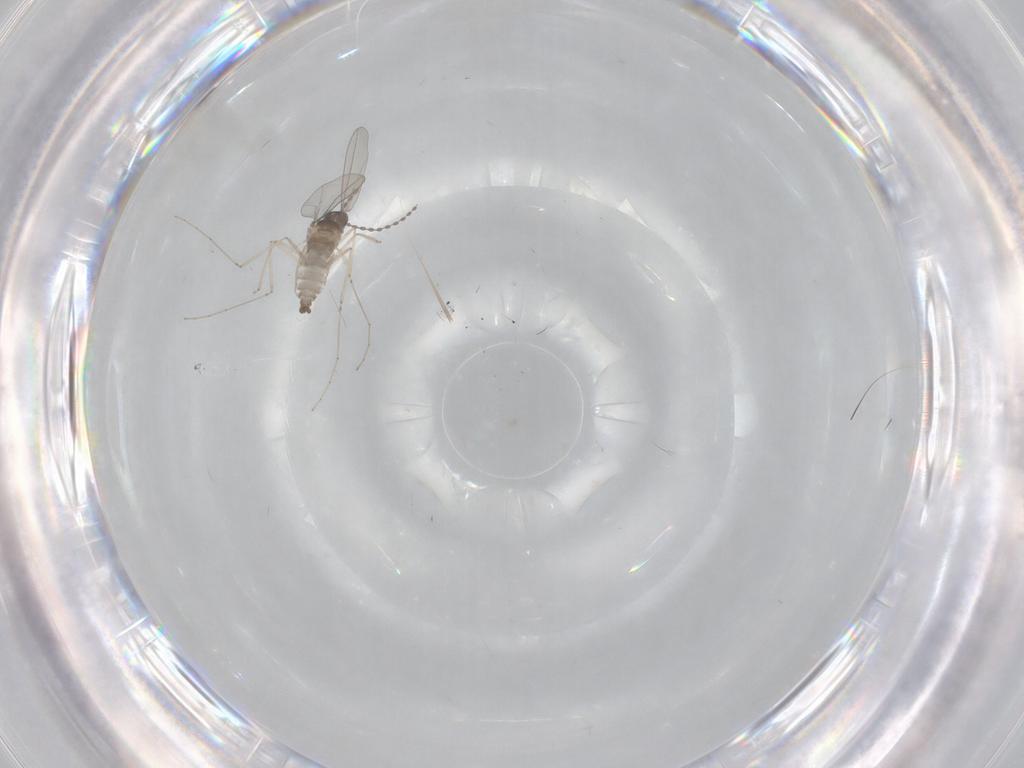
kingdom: Animalia
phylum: Arthropoda
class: Insecta
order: Diptera
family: Cecidomyiidae
